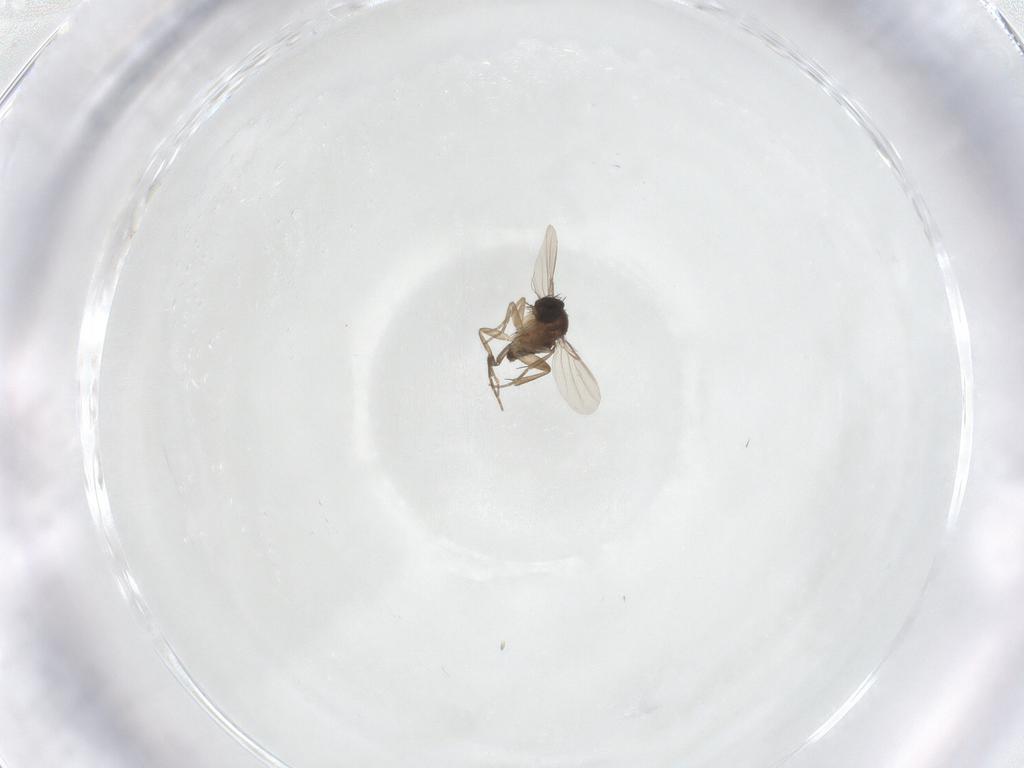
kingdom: Animalia
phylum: Arthropoda
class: Insecta
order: Diptera
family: Phoridae
